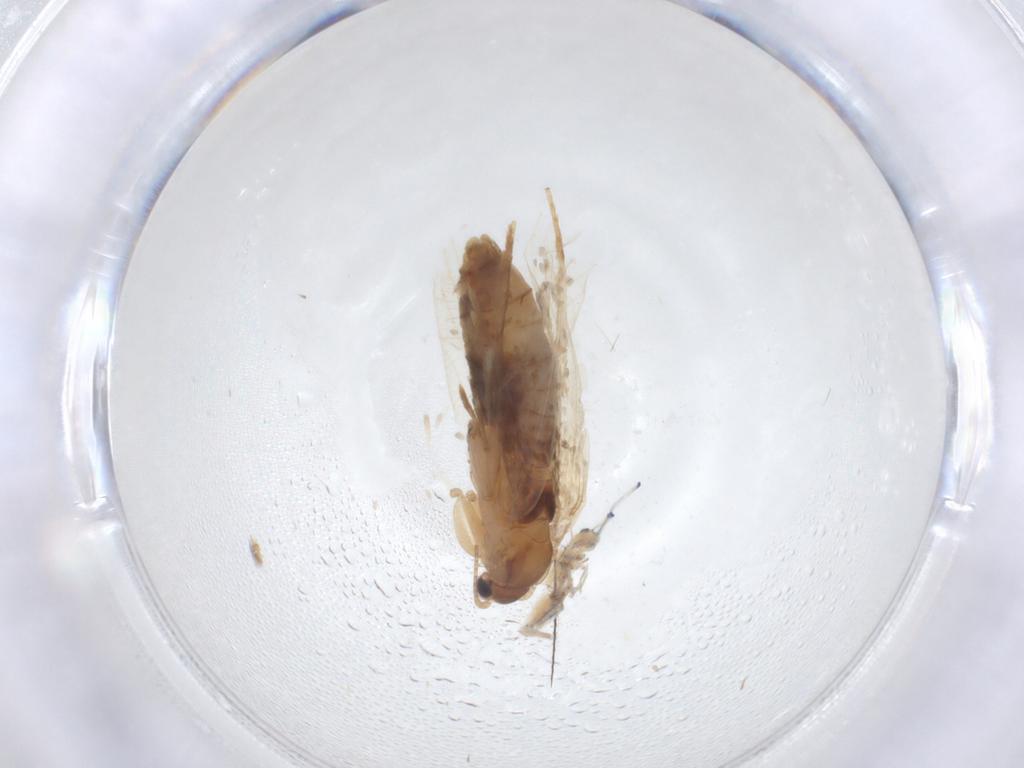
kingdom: Animalia
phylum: Arthropoda
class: Insecta
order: Lepidoptera
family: Eriocottidae
